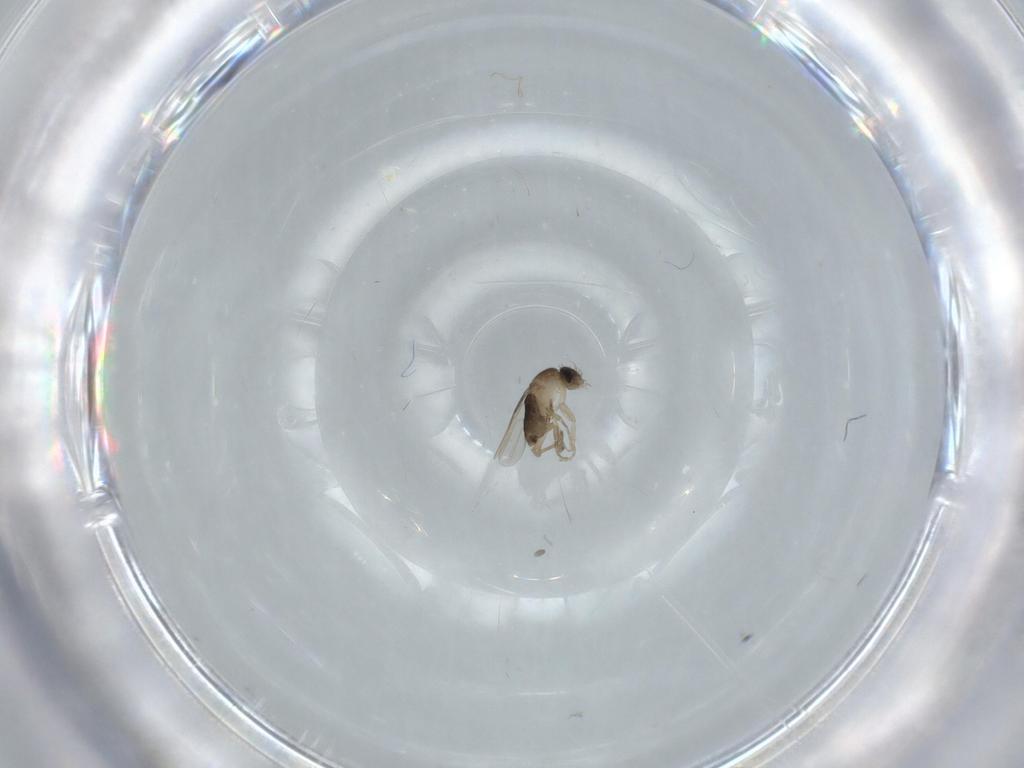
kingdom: Animalia
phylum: Arthropoda
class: Insecta
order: Diptera
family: Phoridae
